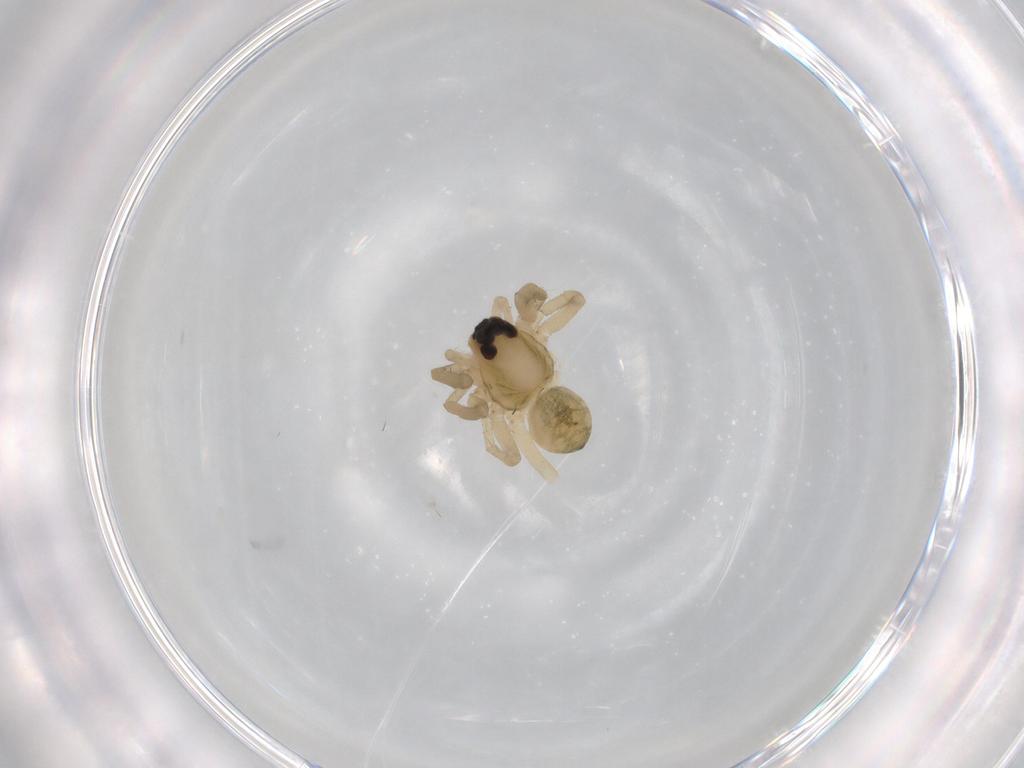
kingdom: Animalia
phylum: Arthropoda
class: Arachnida
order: Araneae
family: Lycosidae
